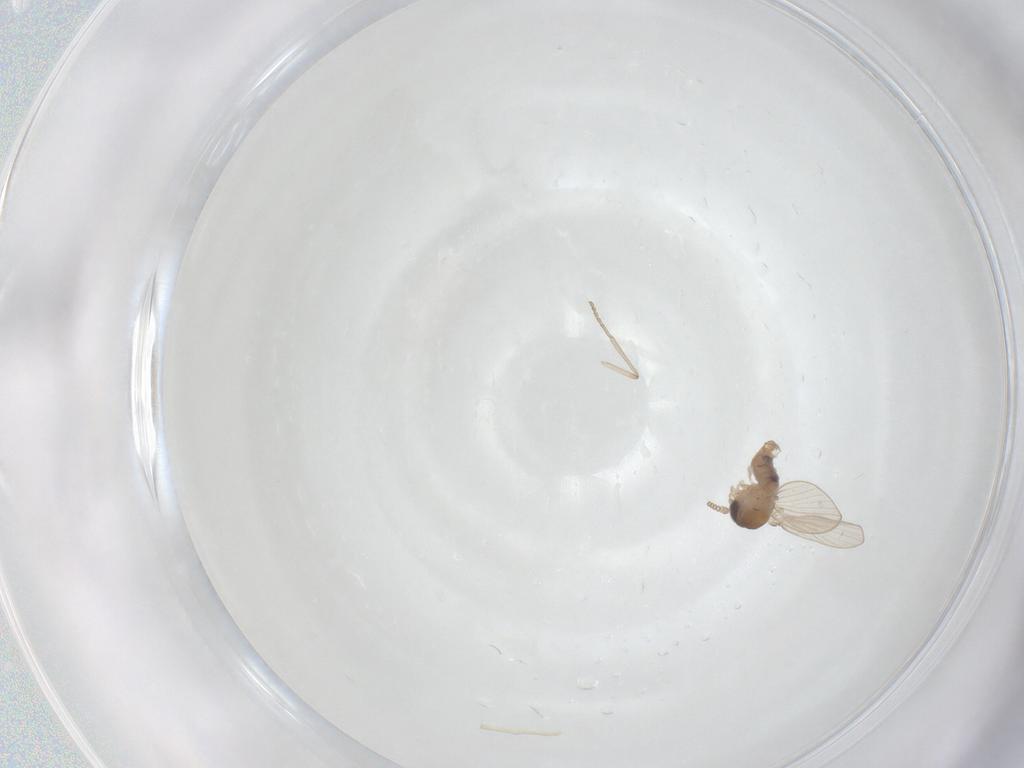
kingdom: Animalia
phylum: Arthropoda
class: Insecta
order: Diptera
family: Psychodidae
